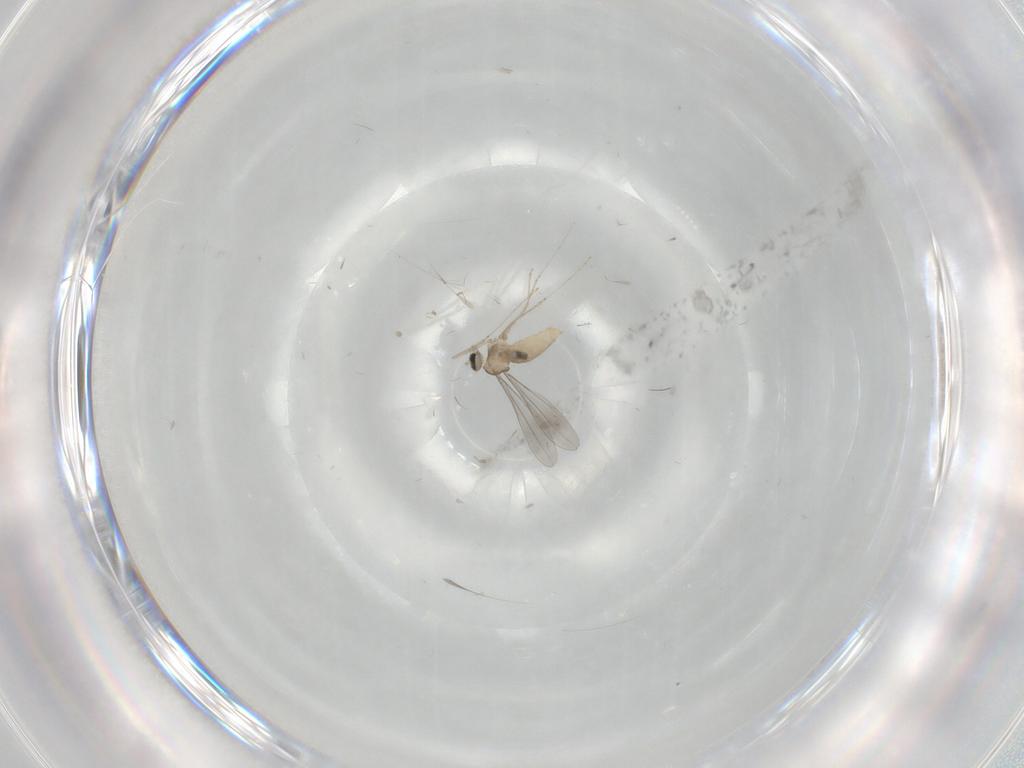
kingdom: Animalia
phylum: Arthropoda
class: Insecta
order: Diptera
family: Cecidomyiidae
